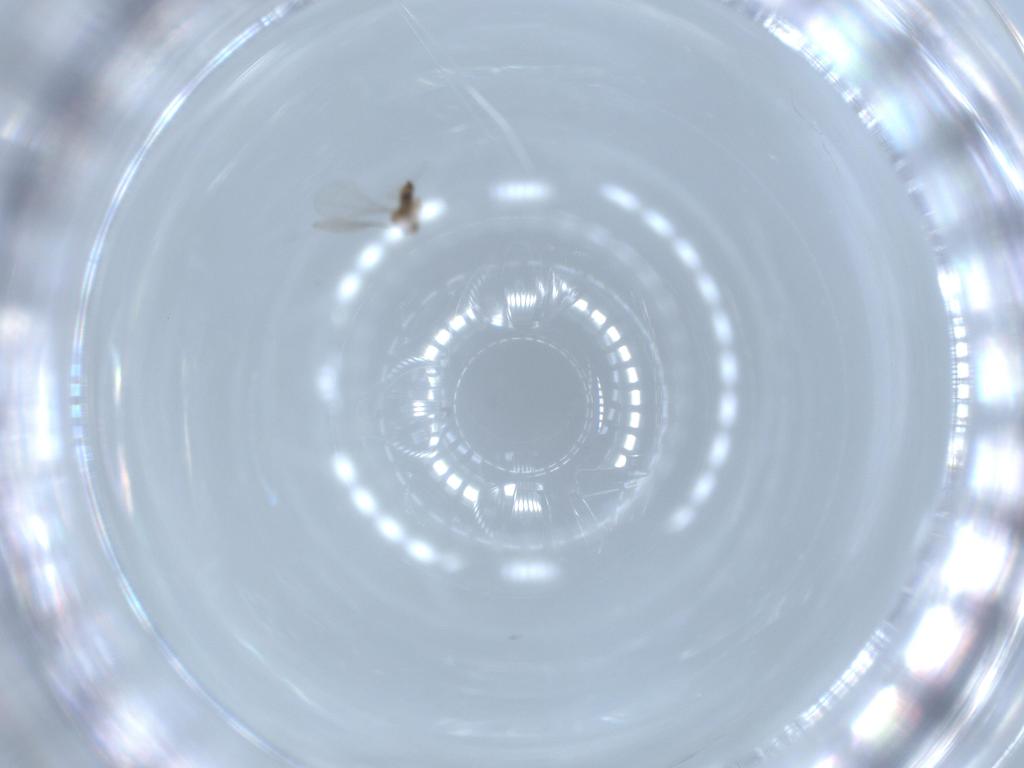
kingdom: Animalia
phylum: Arthropoda
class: Insecta
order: Diptera
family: Cecidomyiidae
